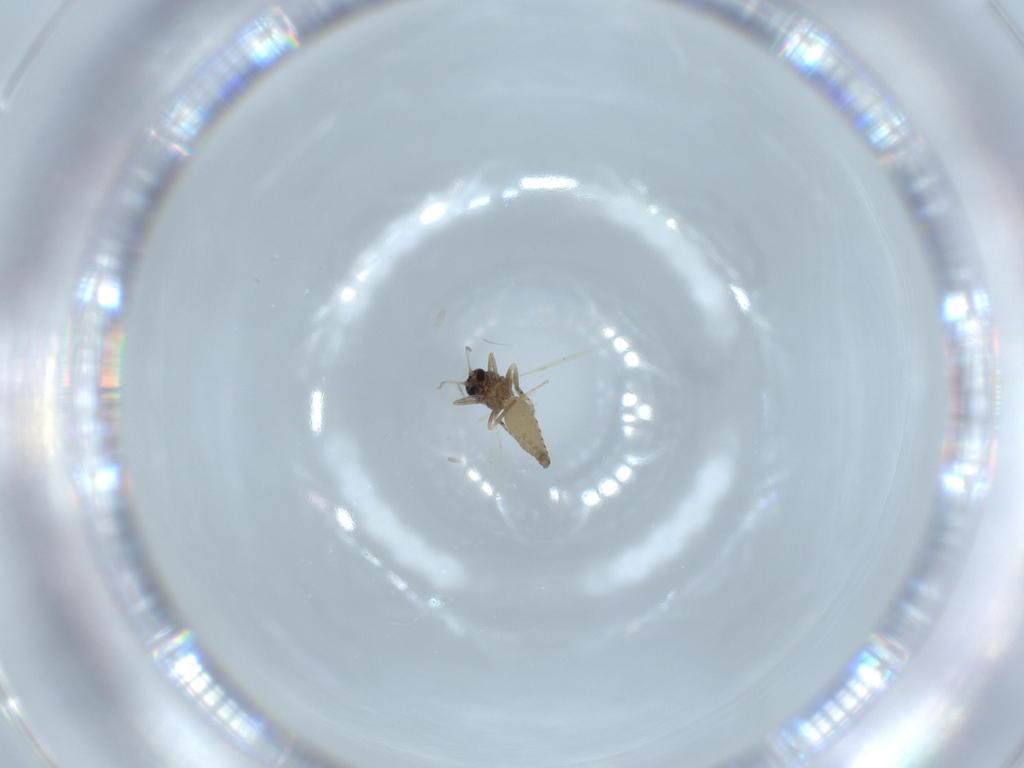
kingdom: Animalia
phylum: Arthropoda
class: Insecta
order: Diptera
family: Ceratopogonidae
